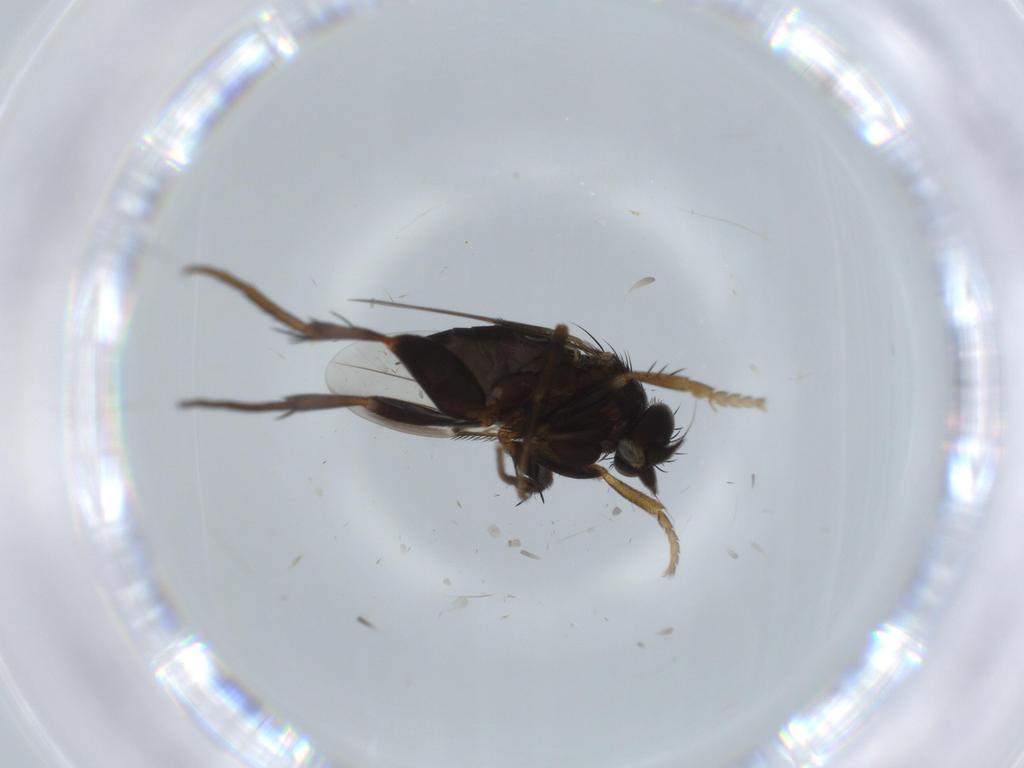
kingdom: Animalia
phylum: Arthropoda
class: Insecta
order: Diptera
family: Phoridae
